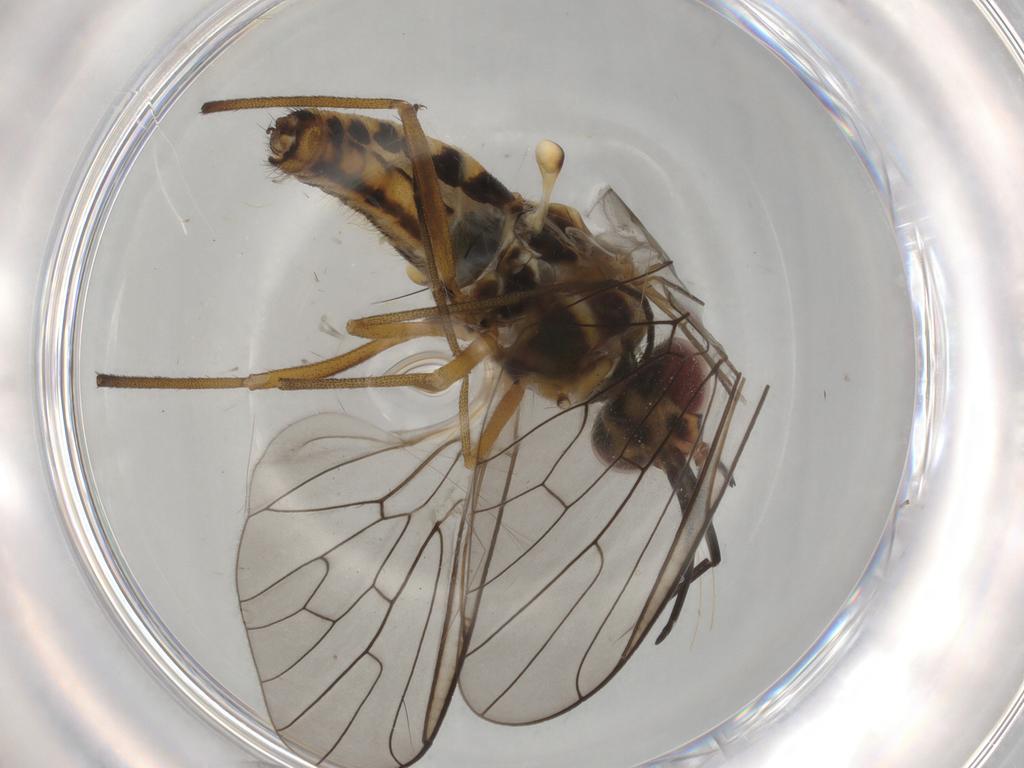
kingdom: Animalia
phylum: Arthropoda
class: Insecta
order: Diptera
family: Bombyliidae
